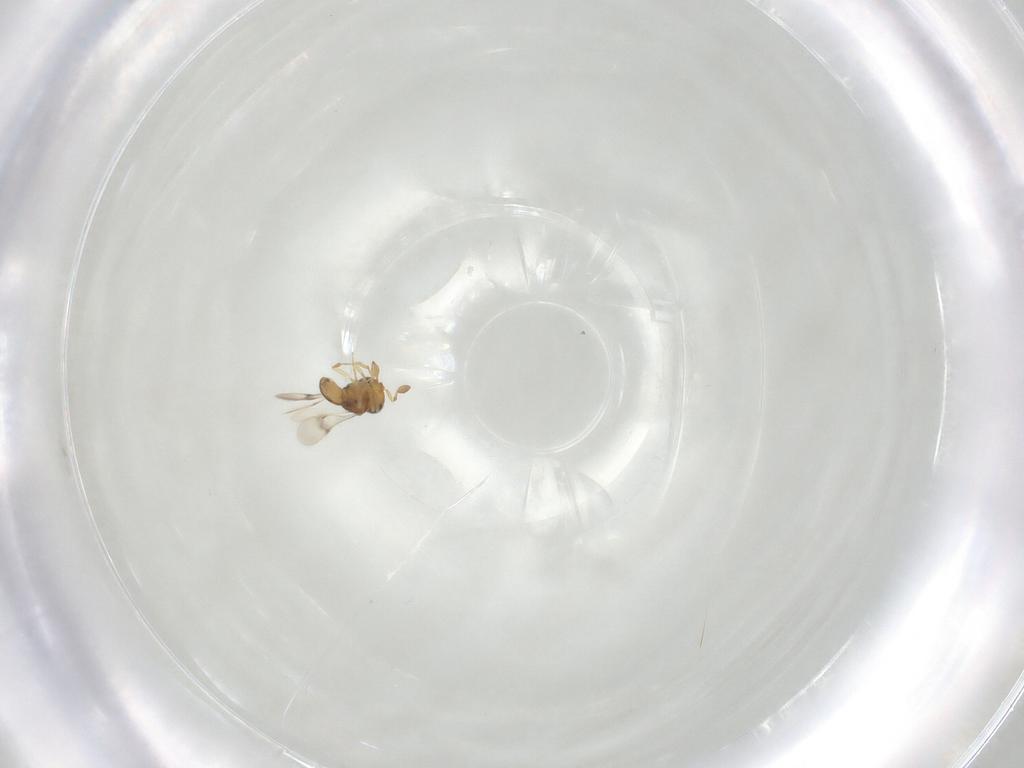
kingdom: Animalia
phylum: Arthropoda
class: Insecta
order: Hymenoptera
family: Scelionidae
